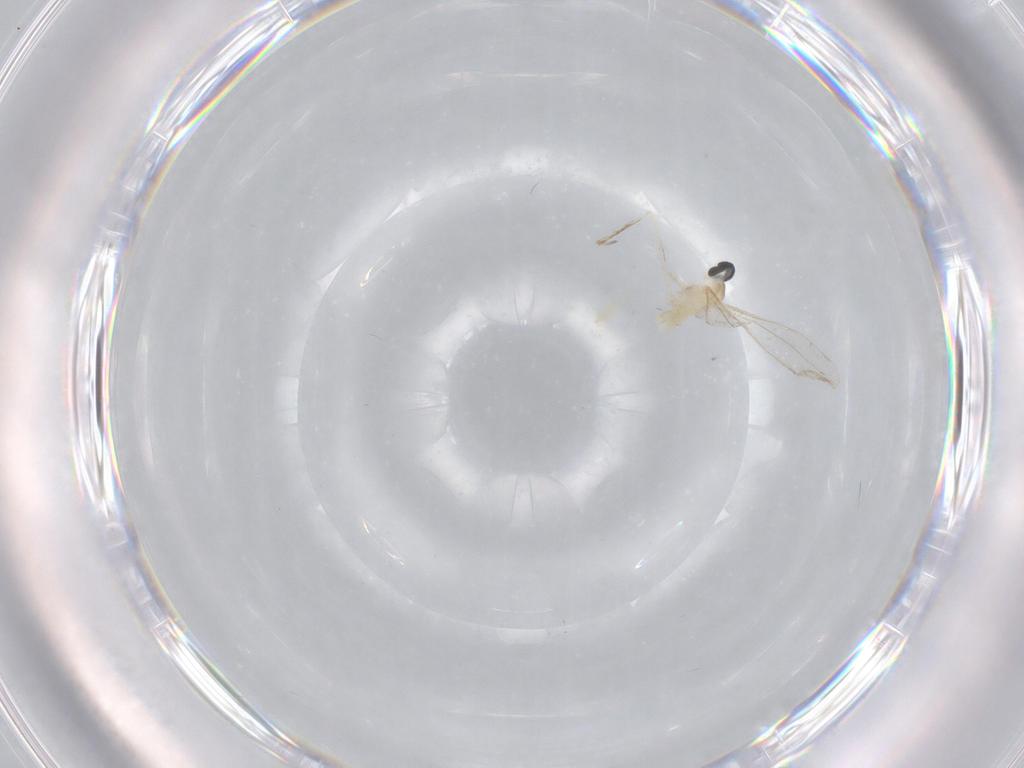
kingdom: Animalia
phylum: Arthropoda
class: Insecta
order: Diptera
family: Cecidomyiidae
